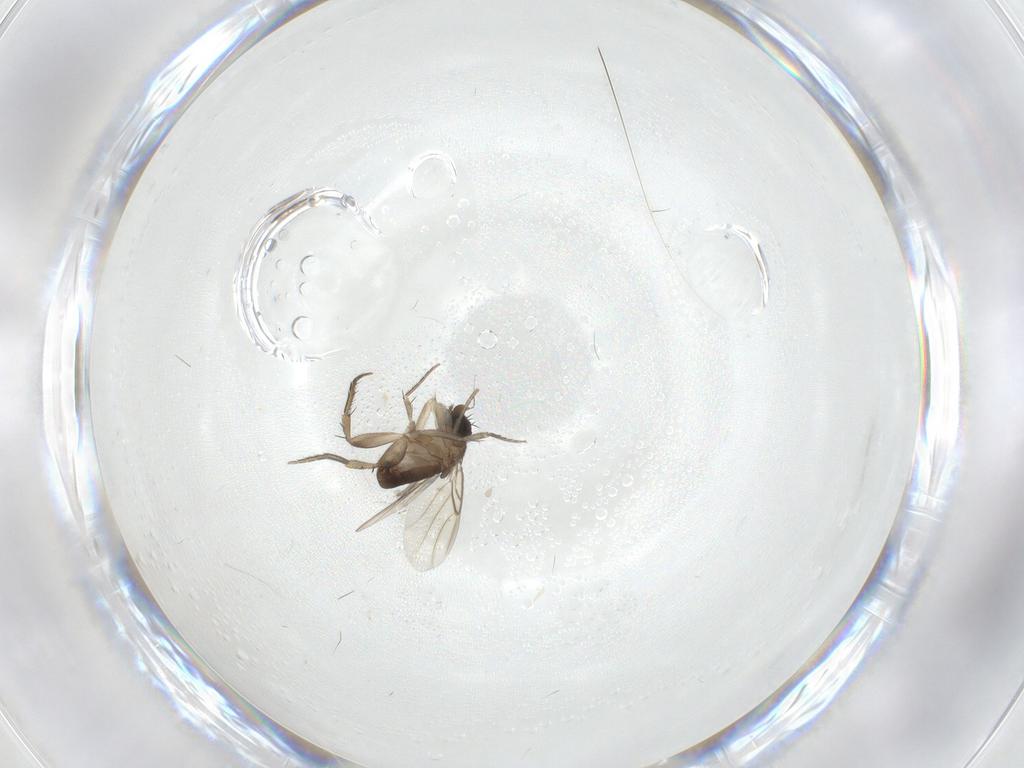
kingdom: Animalia
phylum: Arthropoda
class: Insecta
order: Diptera
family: Phoridae
